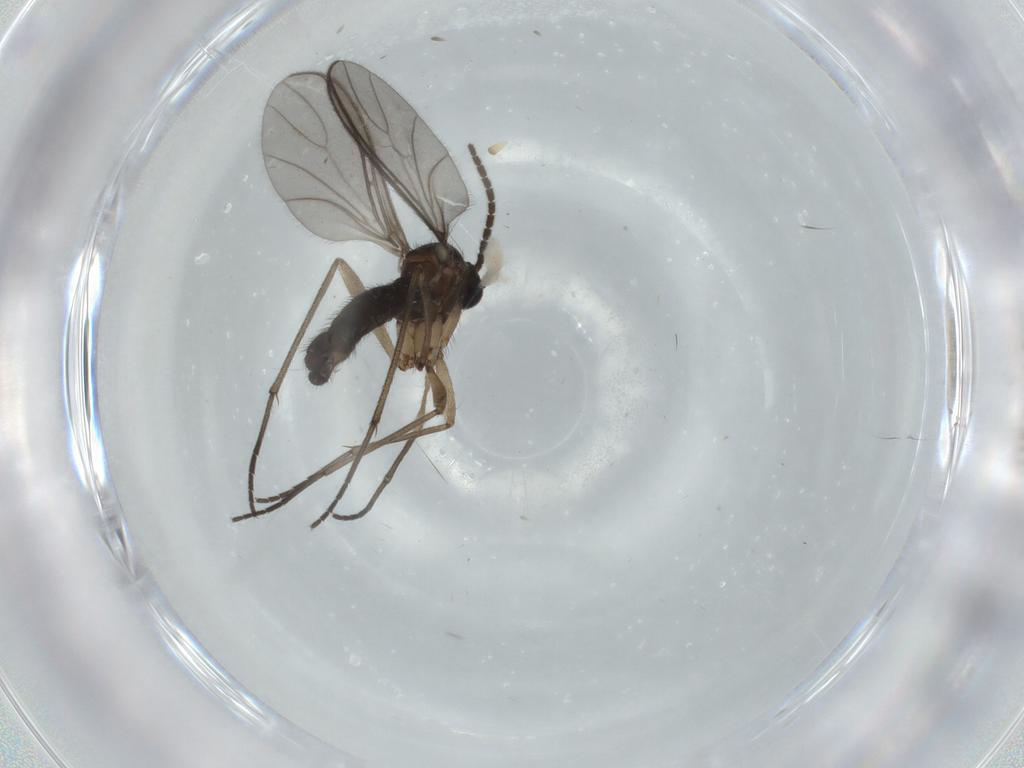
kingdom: Animalia
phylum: Arthropoda
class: Insecta
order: Diptera
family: Sciaridae
